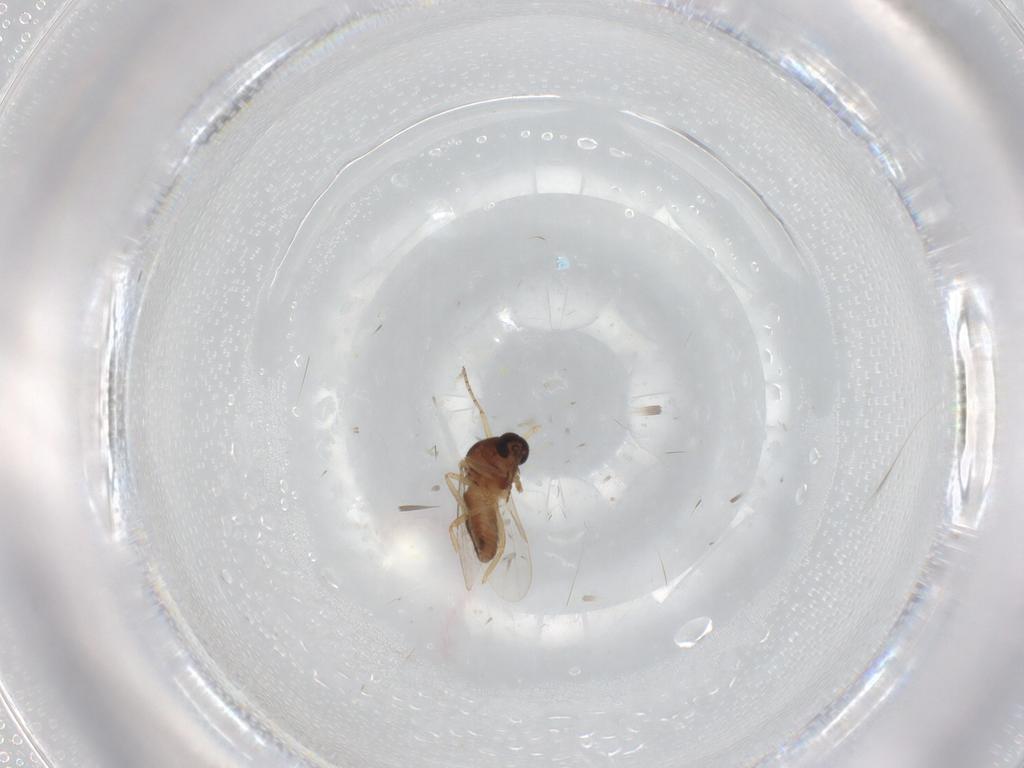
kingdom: Animalia
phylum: Arthropoda
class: Insecta
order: Diptera
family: Ceratopogonidae
